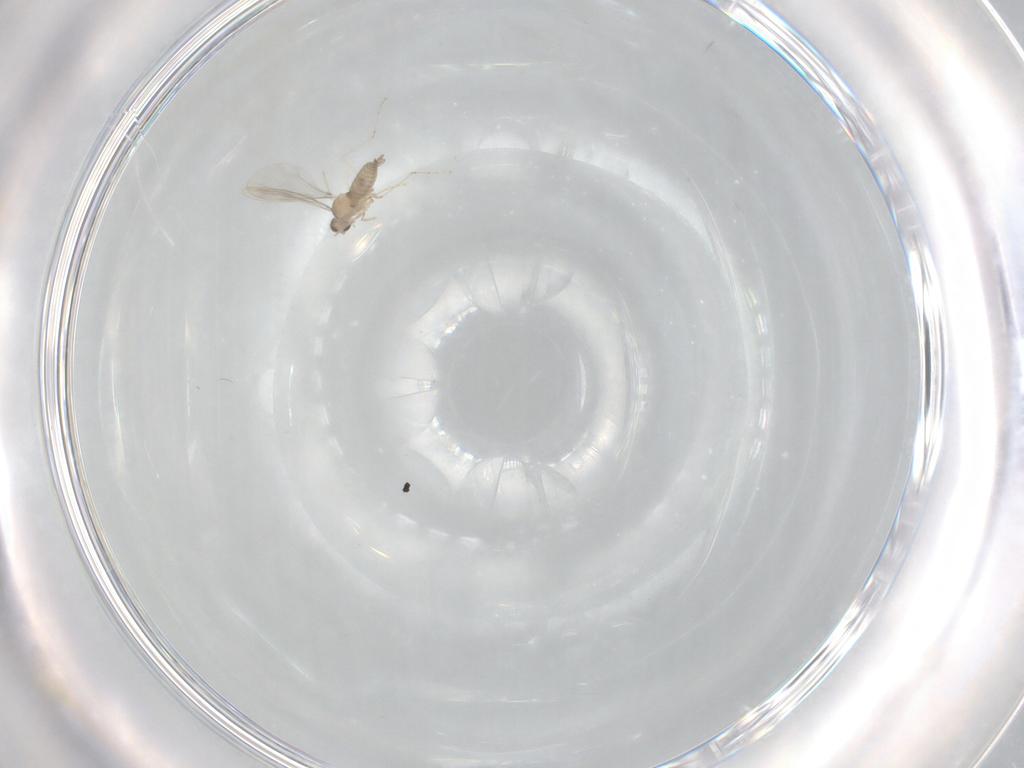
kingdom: Animalia
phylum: Arthropoda
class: Insecta
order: Diptera
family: Cecidomyiidae
